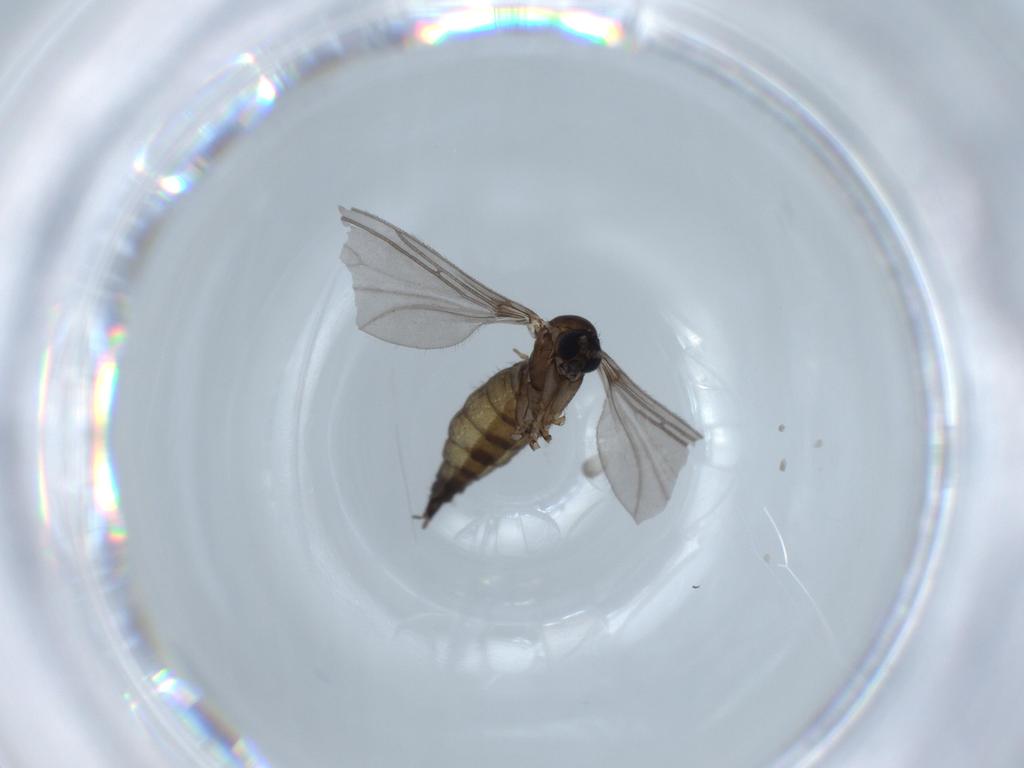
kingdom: Animalia
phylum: Arthropoda
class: Insecta
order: Diptera
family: Sciaridae
